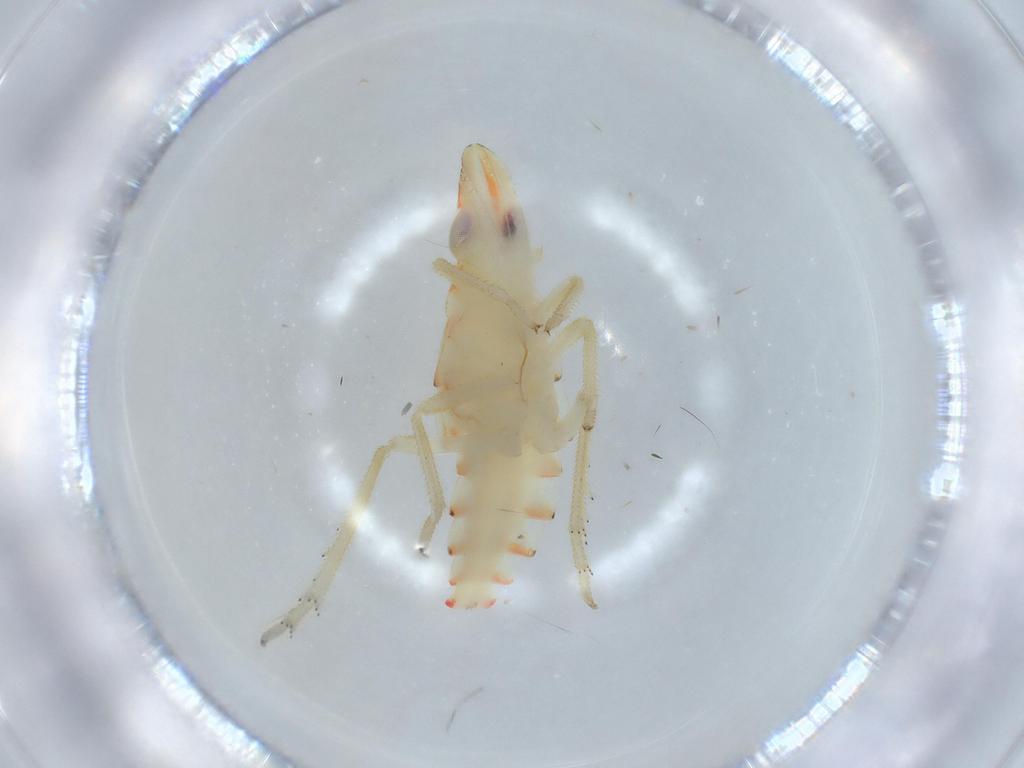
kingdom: Animalia
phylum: Arthropoda
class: Insecta
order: Hemiptera
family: Tropiduchidae
